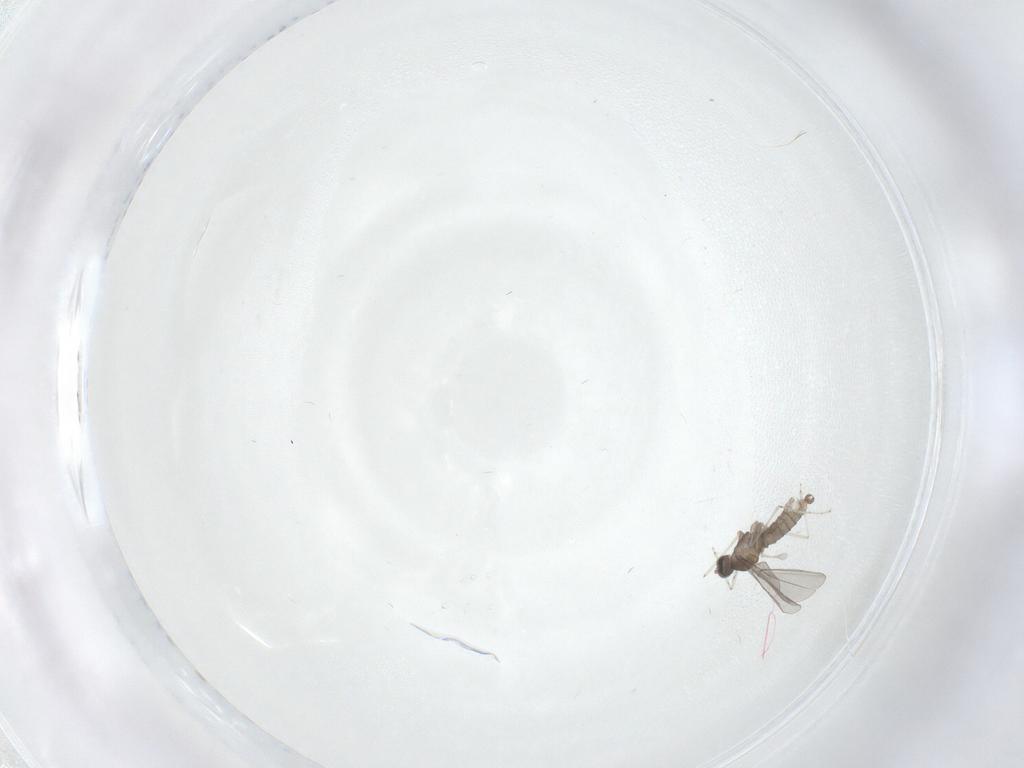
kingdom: Animalia
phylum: Arthropoda
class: Insecta
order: Diptera
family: Cecidomyiidae
